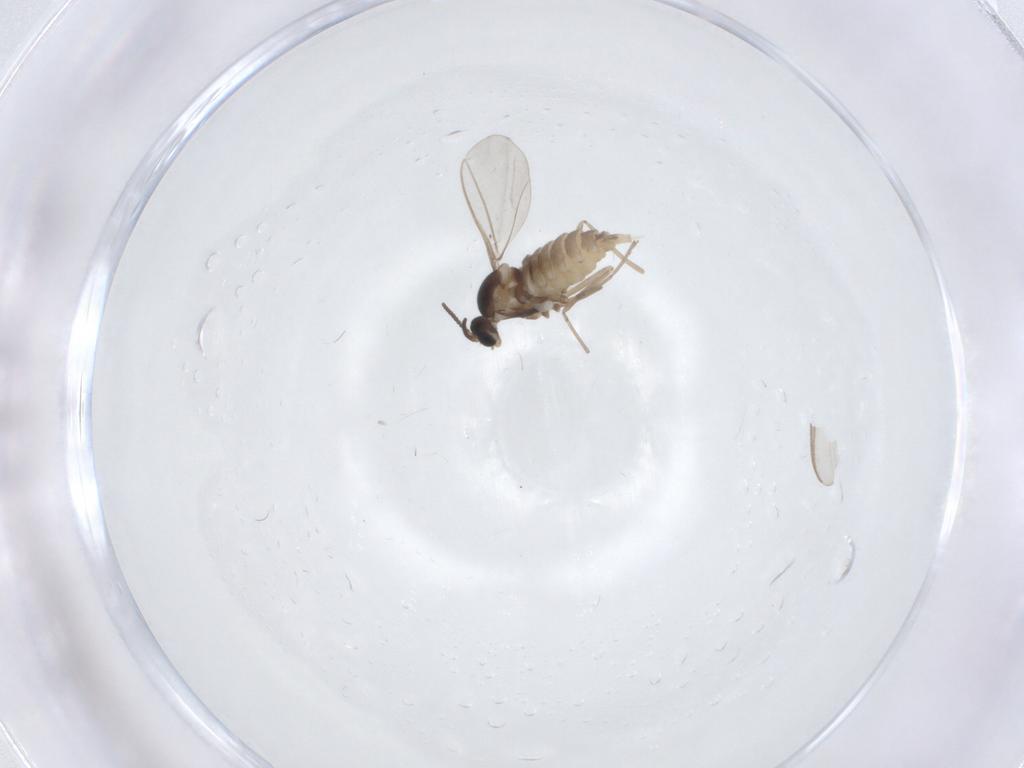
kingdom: Animalia
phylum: Arthropoda
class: Insecta
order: Diptera
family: Cecidomyiidae
